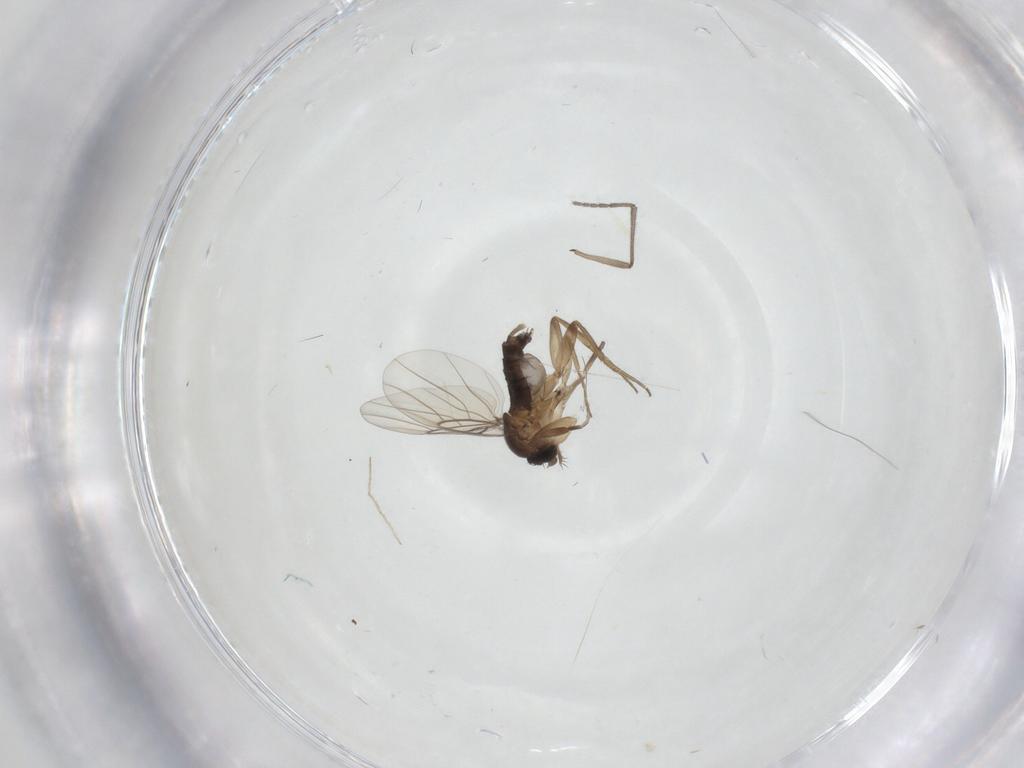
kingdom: Animalia
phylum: Arthropoda
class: Insecta
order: Diptera
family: Phoridae
